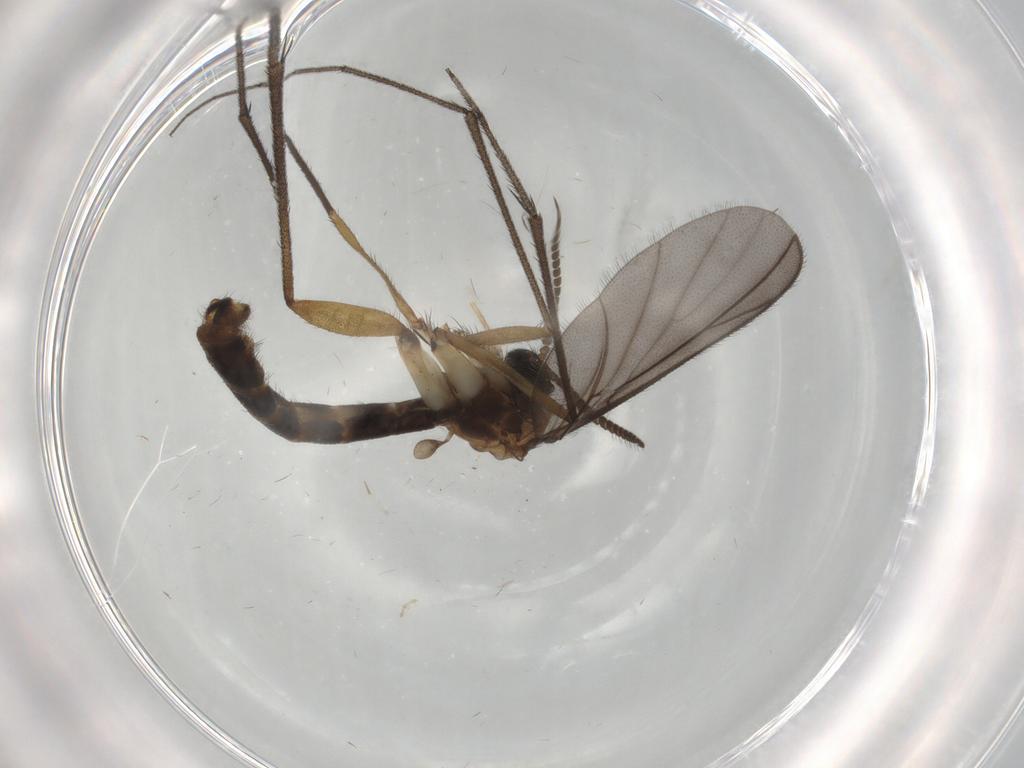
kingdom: Animalia
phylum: Arthropoda
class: Insecta
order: Diptera
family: Ditomyiidae
